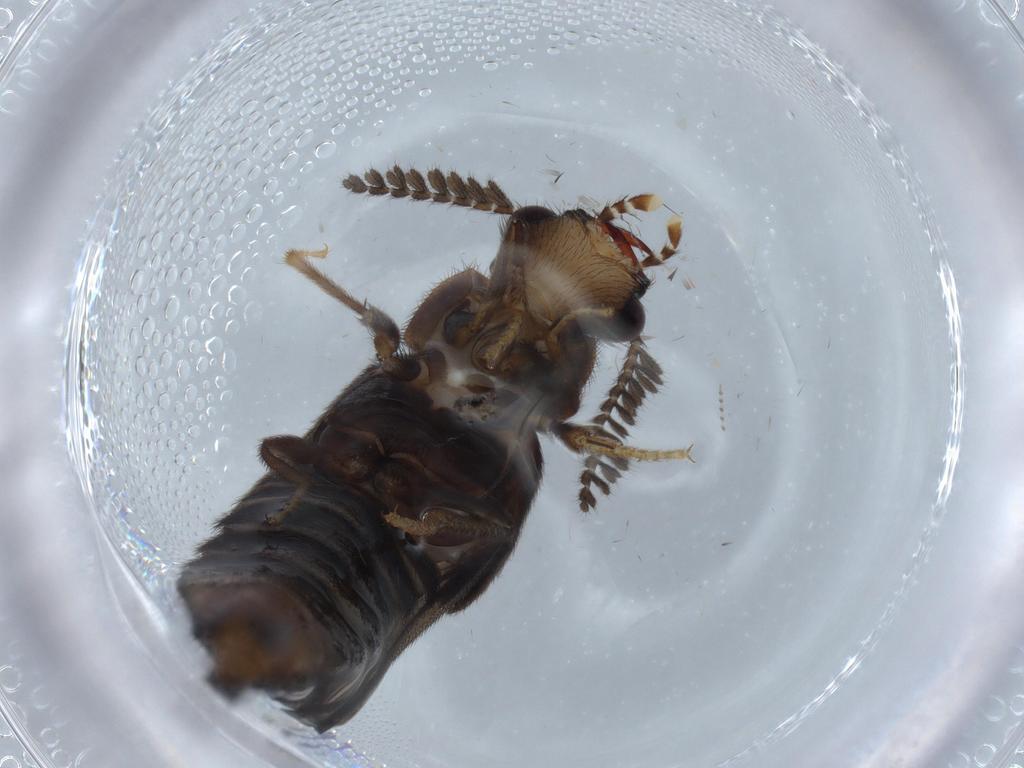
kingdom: Animalia
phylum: Arthropoda
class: Insecta
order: Coleoptera
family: Phengodidae
